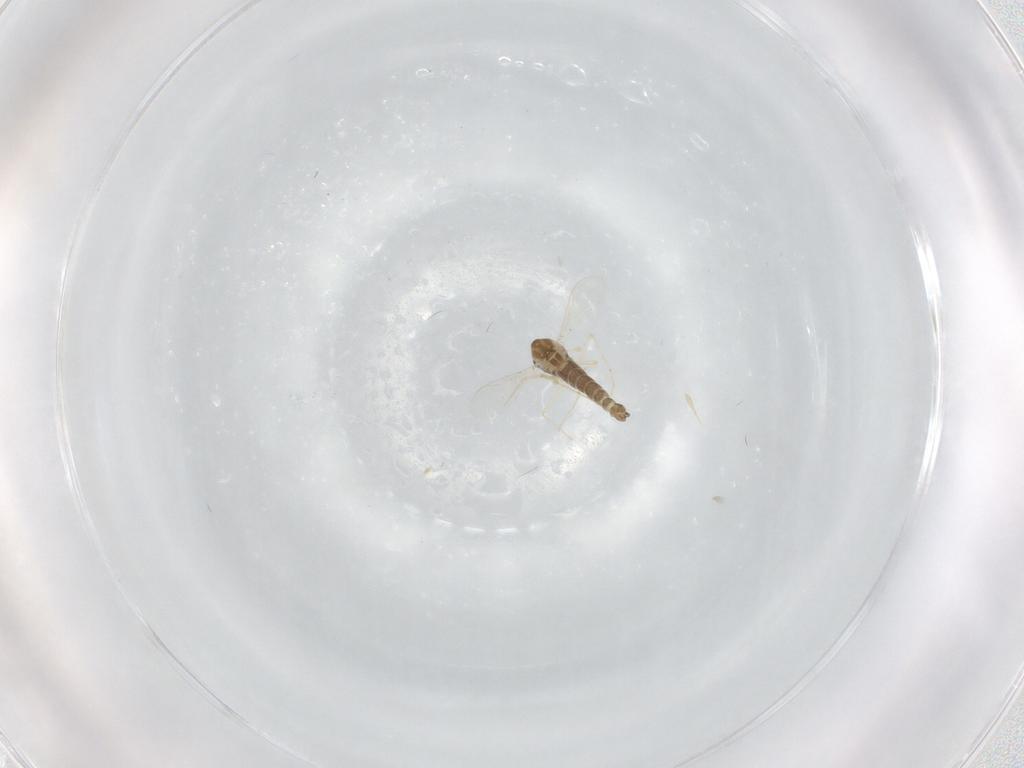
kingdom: Animalia
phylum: Arthropoda
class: Insecta
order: Diptera
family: Chironomidae
